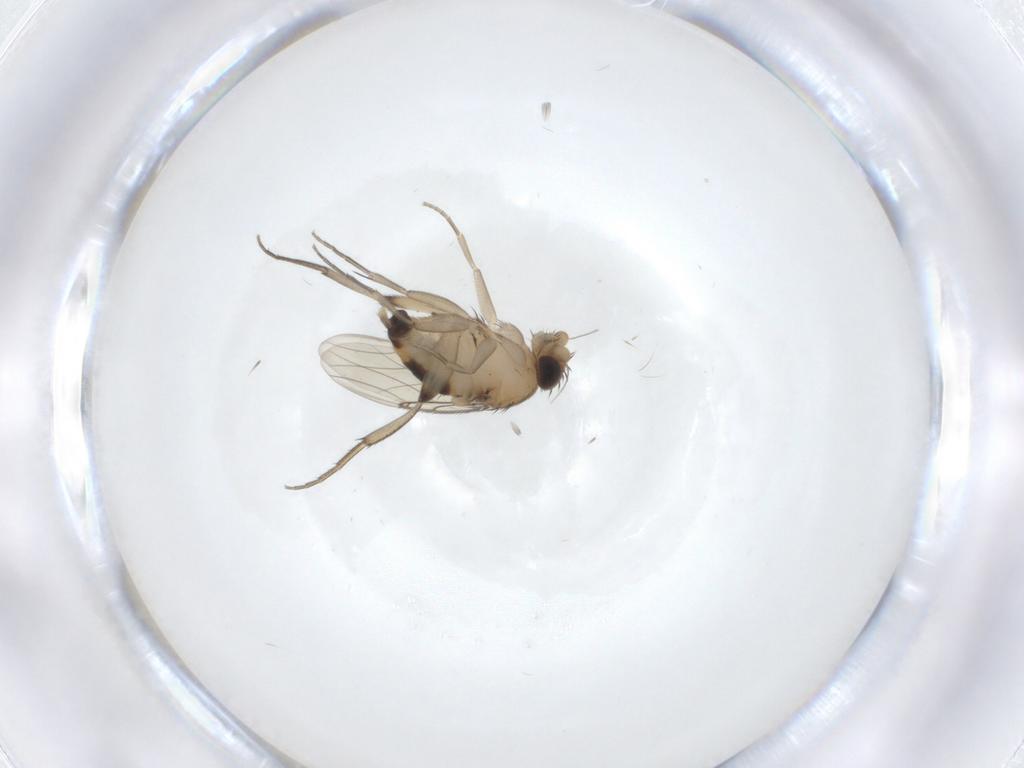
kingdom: Animalia
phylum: Arthropoda
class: Insecta
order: Diptera
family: Phoridae
